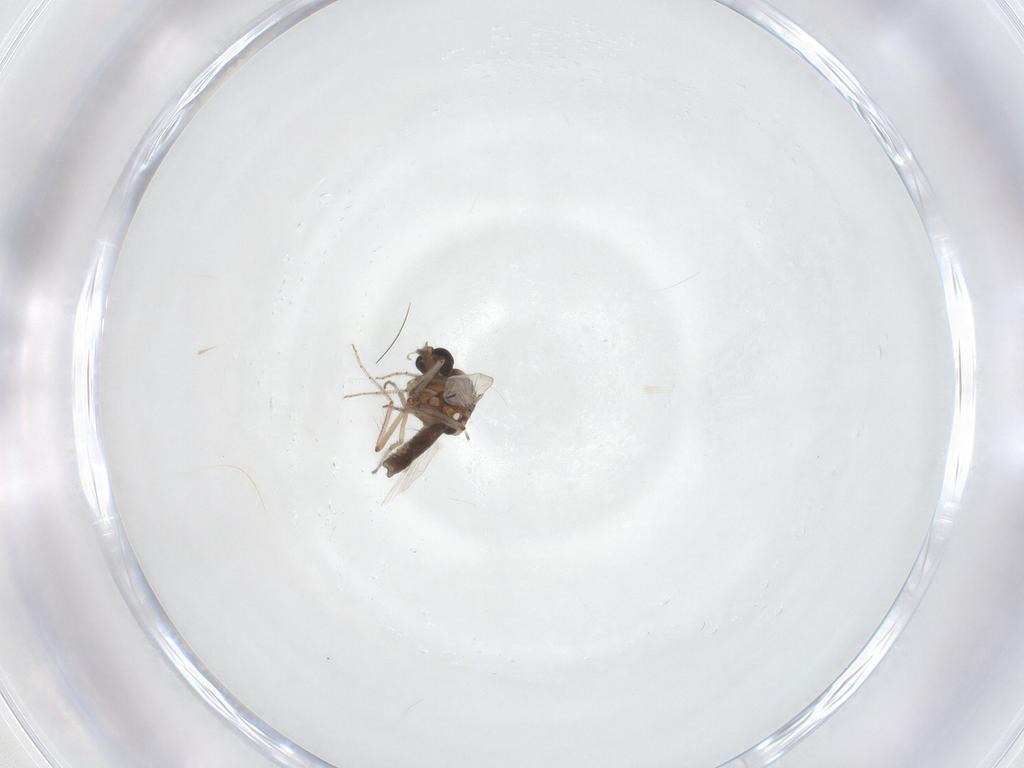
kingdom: Animalia
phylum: Arthropoda
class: Insecta
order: Diptera
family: Ceratopogonidae
